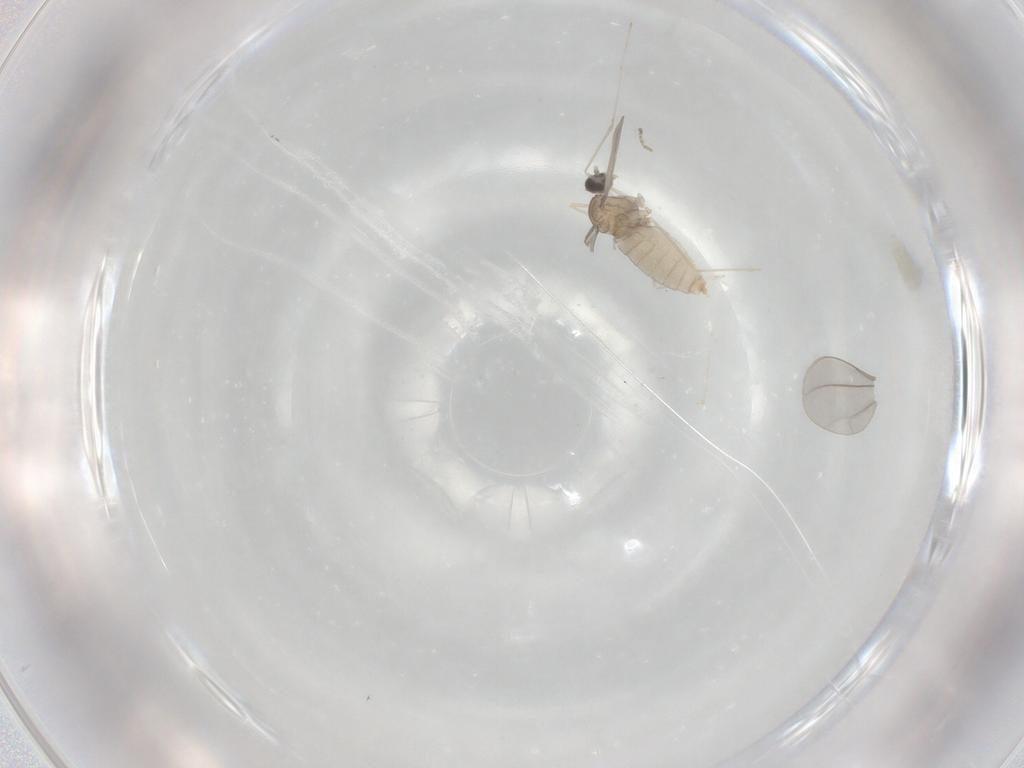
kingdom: Animalia
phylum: Arthropoda
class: Insecta
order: Diptera
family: Cecidomyiidae
